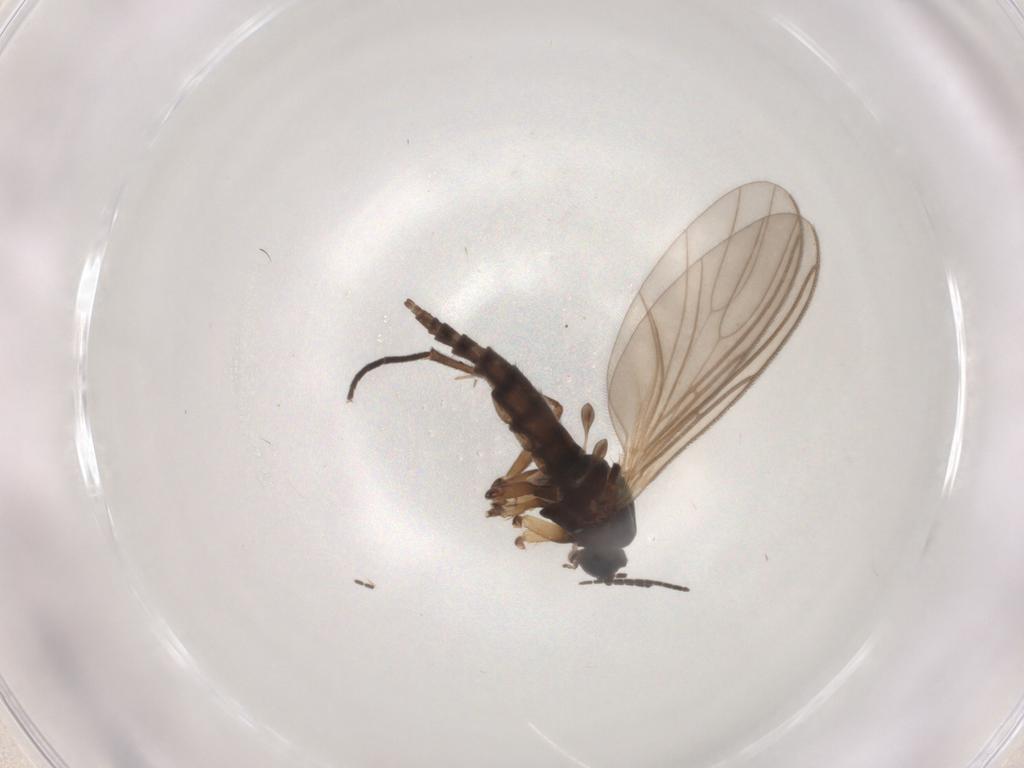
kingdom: Animalia
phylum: Arthropoda
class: Insecta
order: Diptera
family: Sciaridae
